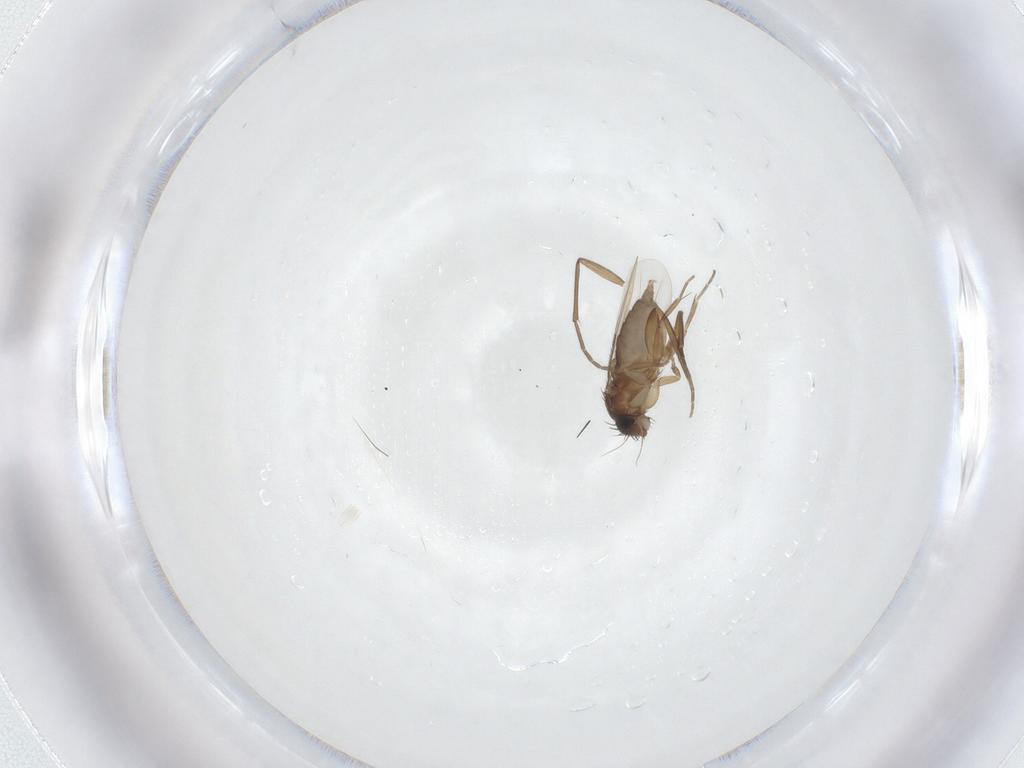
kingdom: Animalia
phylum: Arthropoda
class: Insecta
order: Diptera
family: Phoridae
